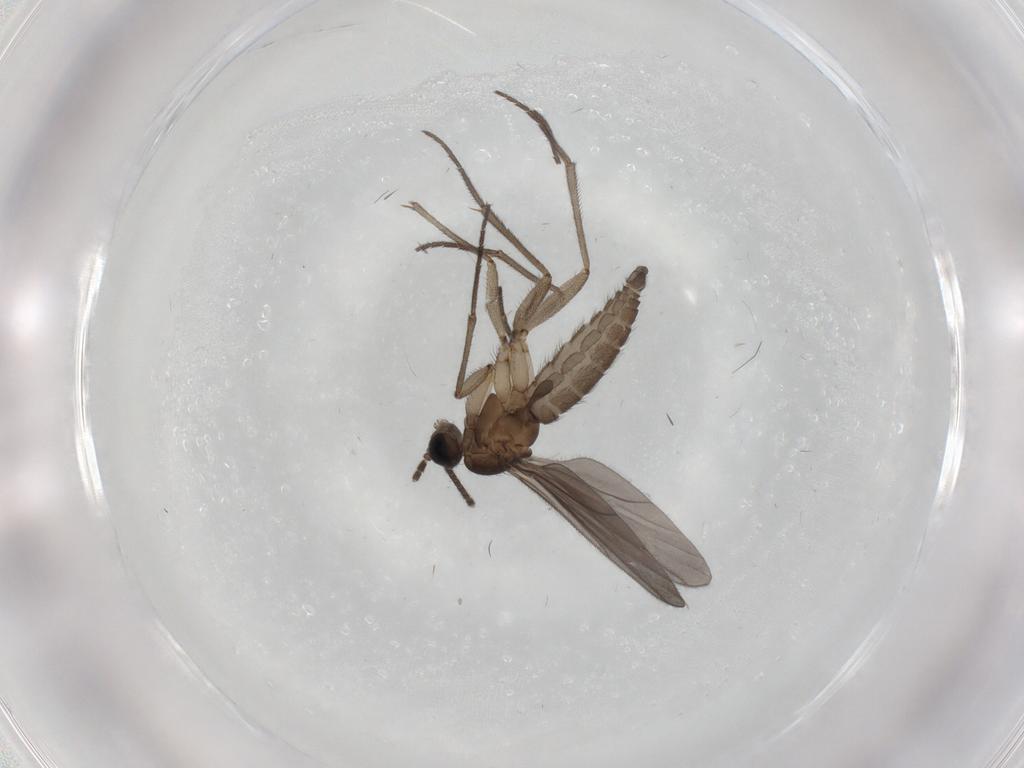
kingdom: Animalia
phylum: Arthropoda
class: Insecta
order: Diptera
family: Sciaridae
